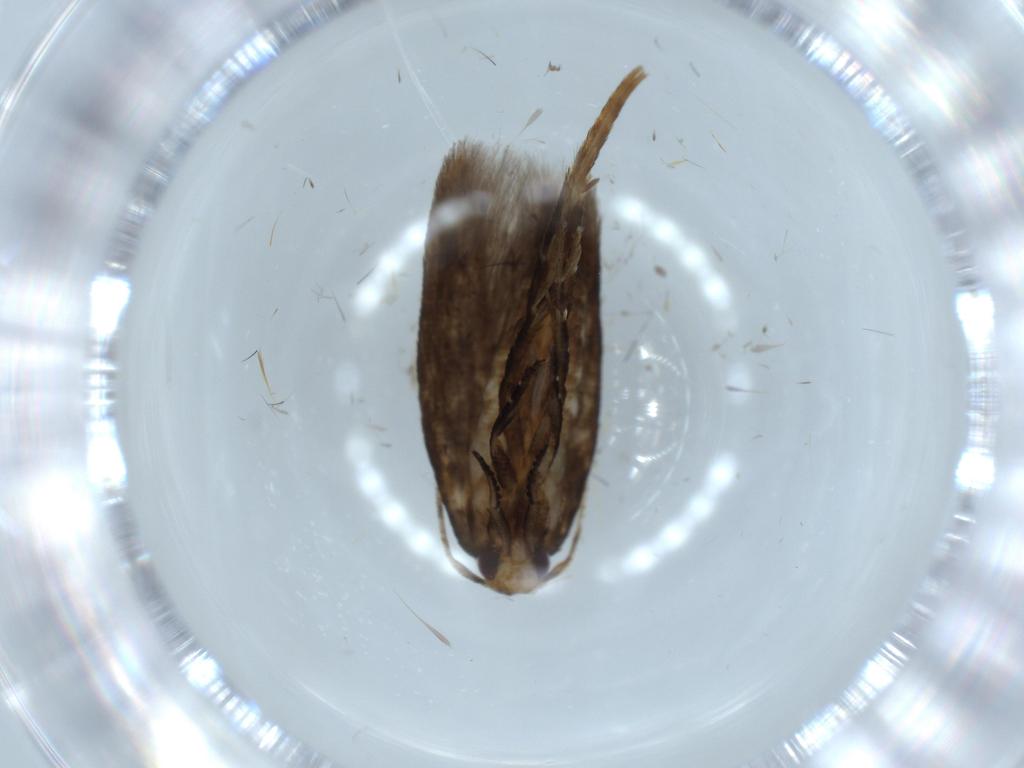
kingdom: Animalia
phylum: Arthropoda
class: Insecta
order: Lepidoptera
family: Gracillariidae
